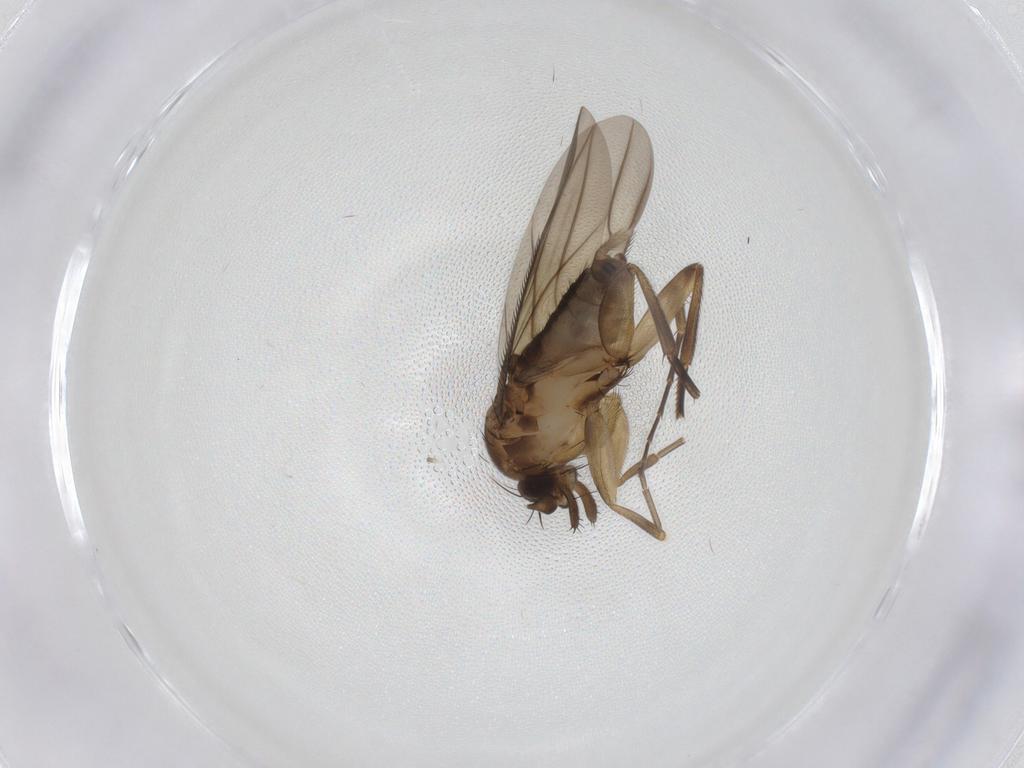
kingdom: Animalia
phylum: Arthropoda
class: Insecta
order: Diptera
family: Phoridae
